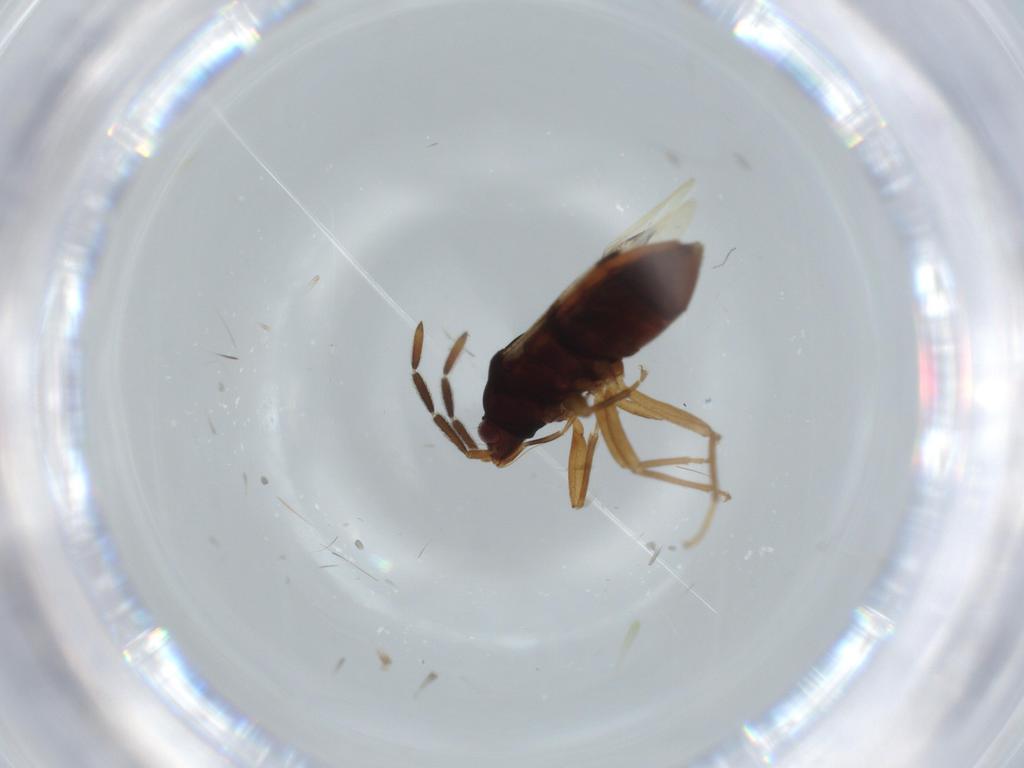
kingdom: Animalia
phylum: Arthropoda
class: Insecta
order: Hemiptera
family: Rhyparochromidae
